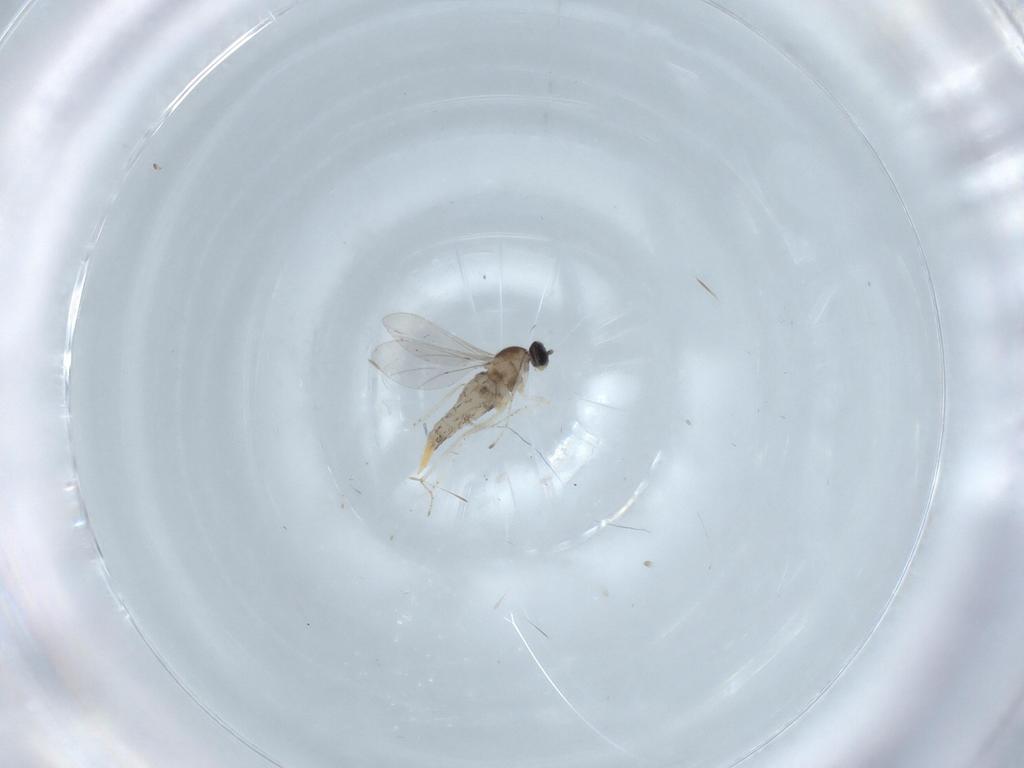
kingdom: Animalia
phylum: Arthropoda
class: Insecta
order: Diptera
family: Cecidomyiidae
